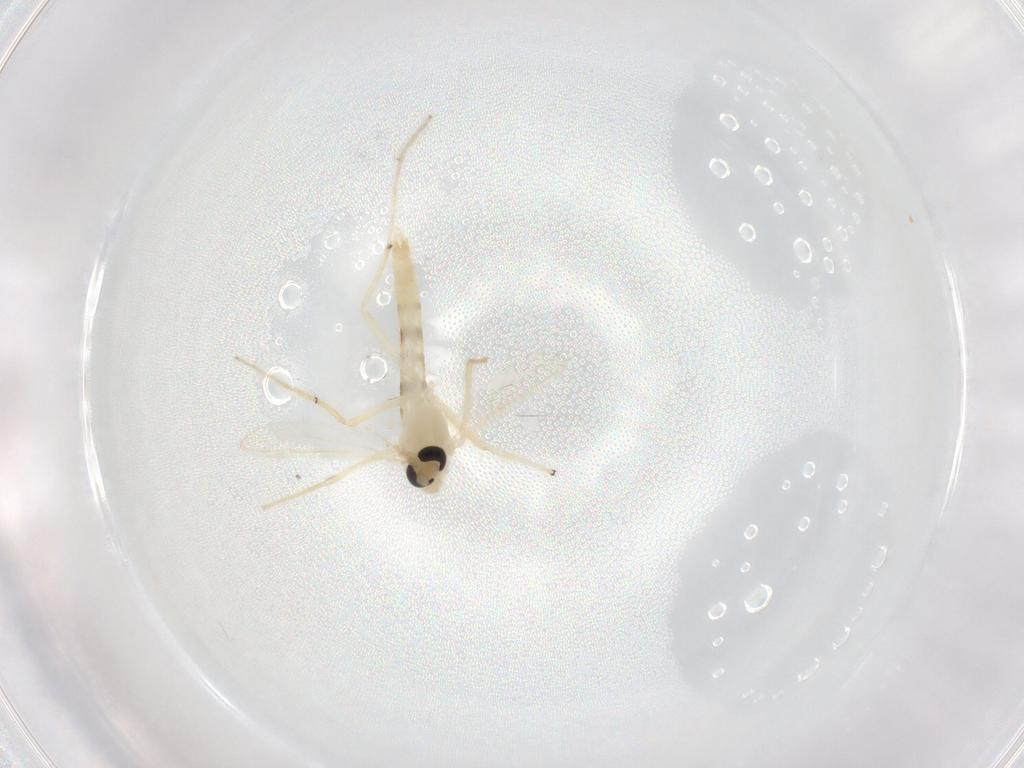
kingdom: Animalia
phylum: Arthropoda
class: Insecta
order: Diptera
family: Chironomidae
